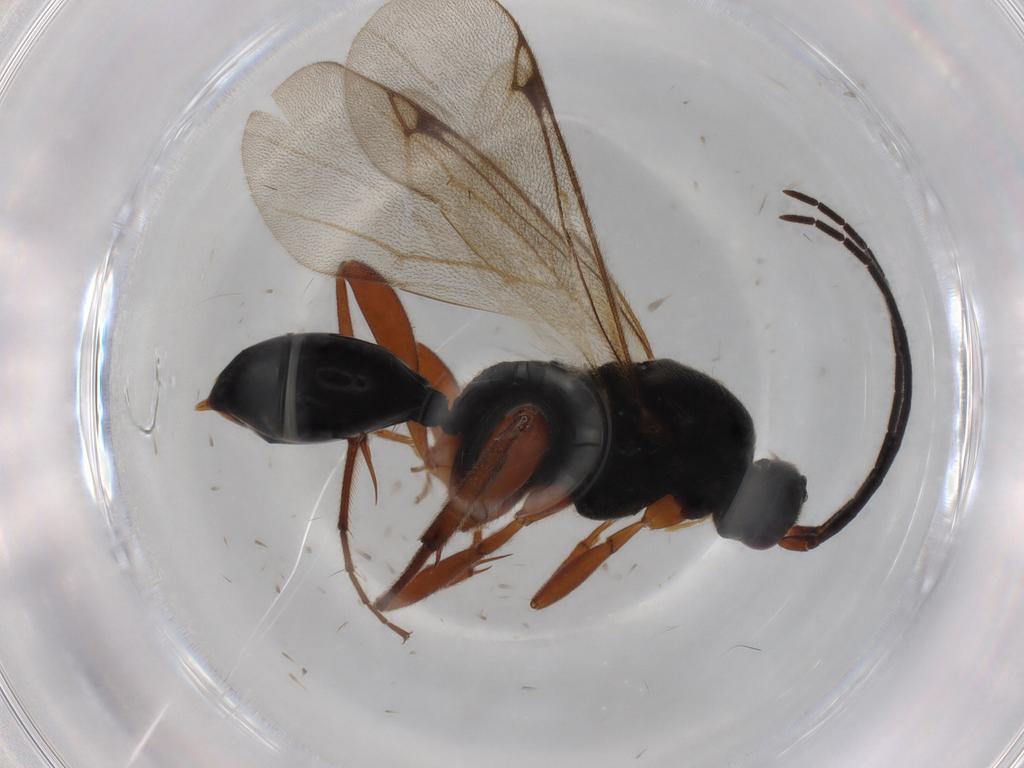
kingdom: Animalia
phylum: Arthropoda
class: Insecta
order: Hymenoptera
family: Proctotrupidae
